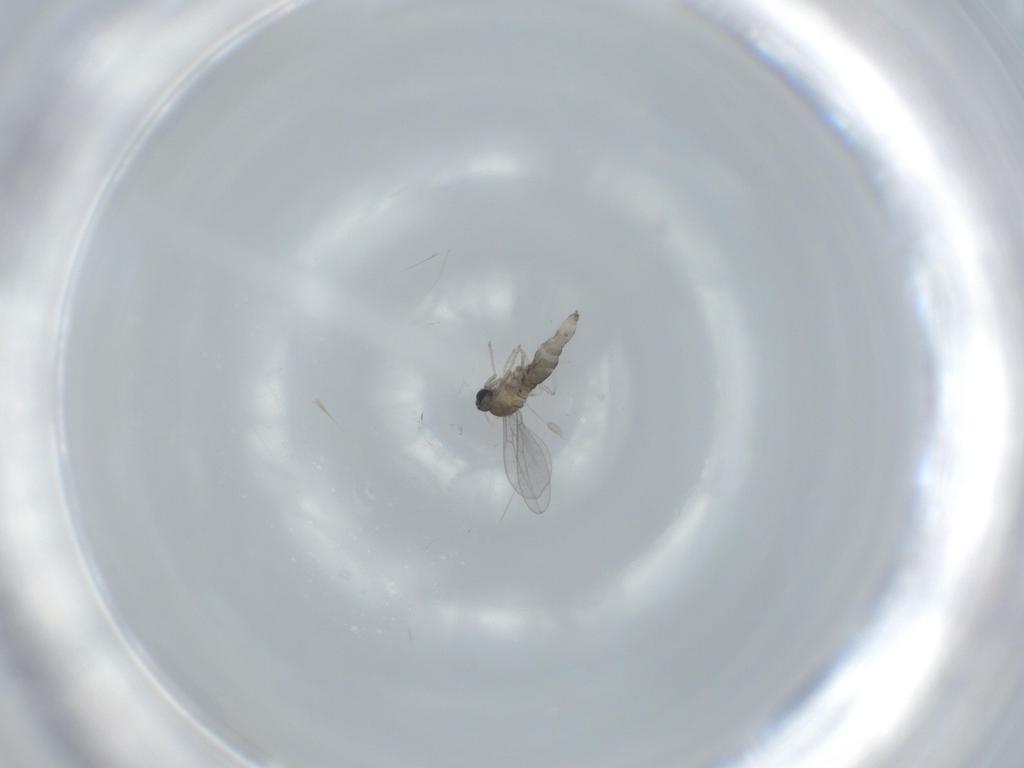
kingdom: Animalia
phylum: Arthropoda
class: Insecta
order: Diptera
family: Cecidomyiidae
